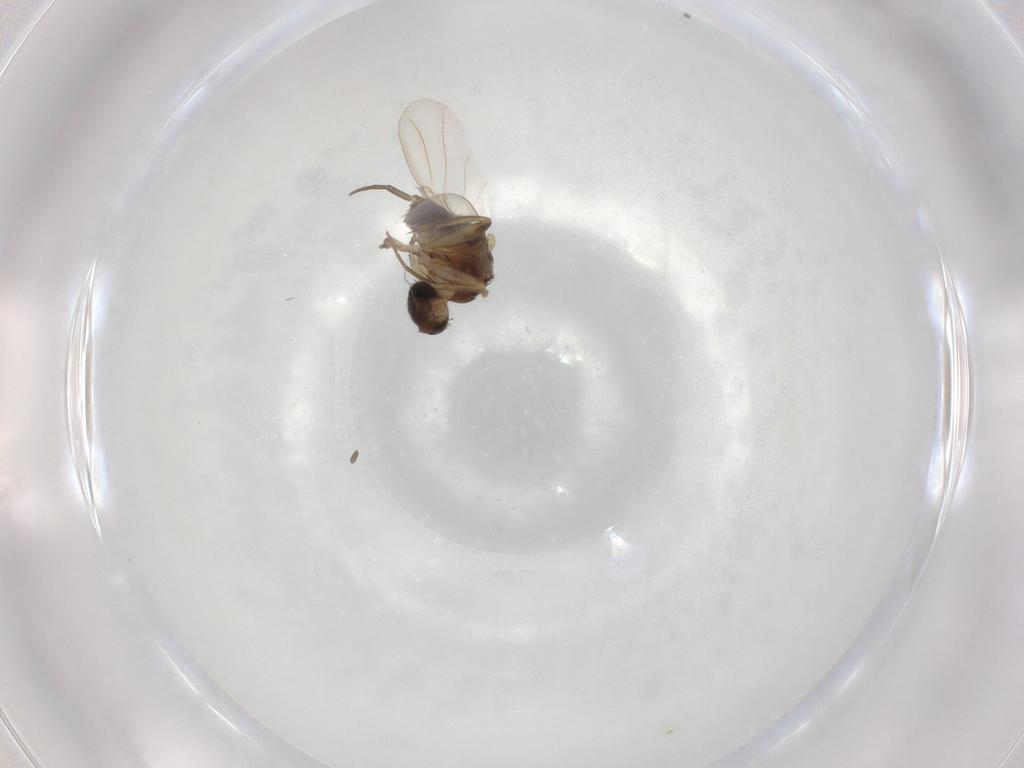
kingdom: Animalia
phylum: Arthropoda
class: Insecta
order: Diptera
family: Phoridae
